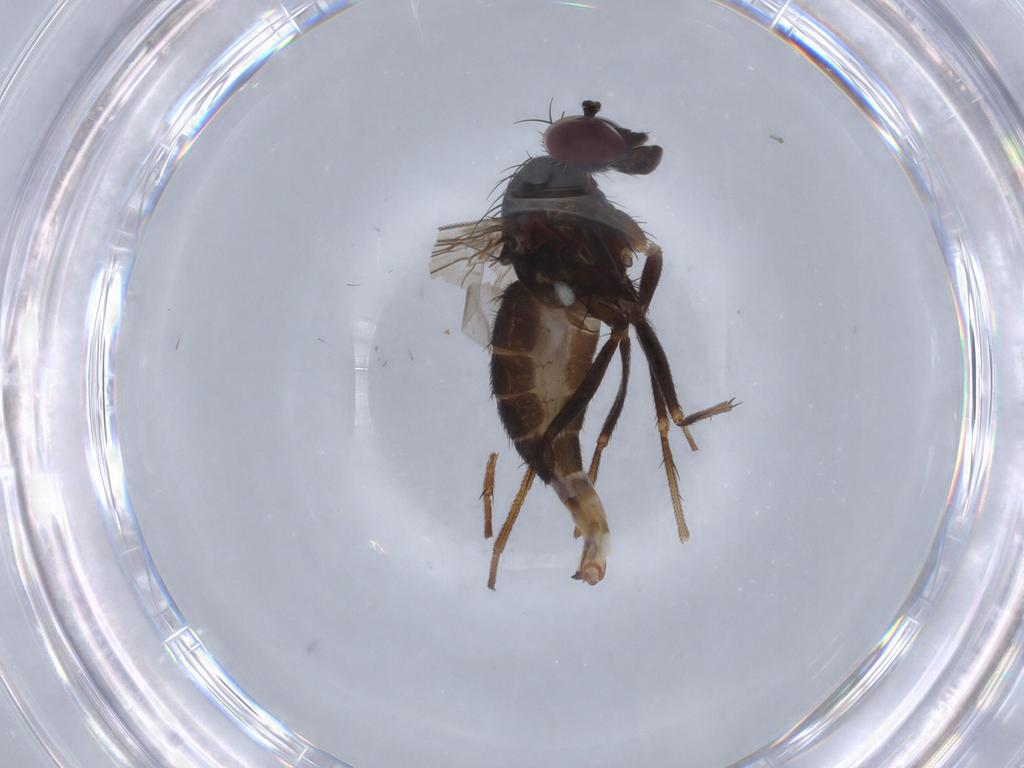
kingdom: Animalia
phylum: Arthropoda
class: Insecta
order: Diptera
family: Dolichopodidae
